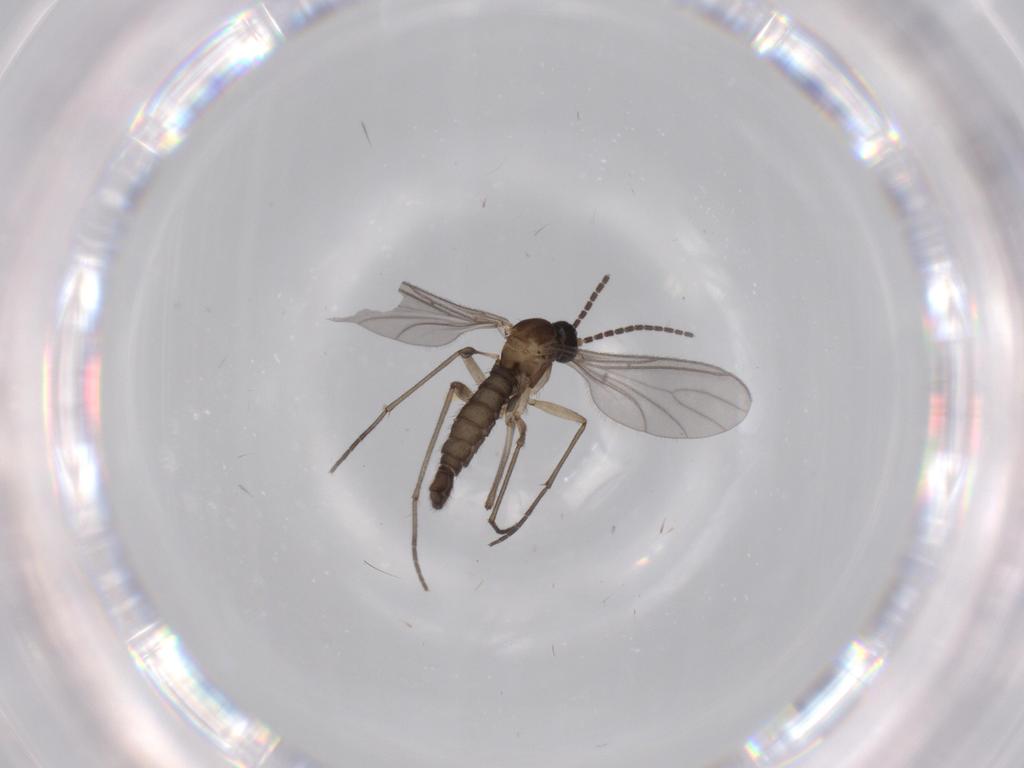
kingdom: Animalia
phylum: Arthropoda
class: Insecta
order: Diptera
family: Sciaridae
